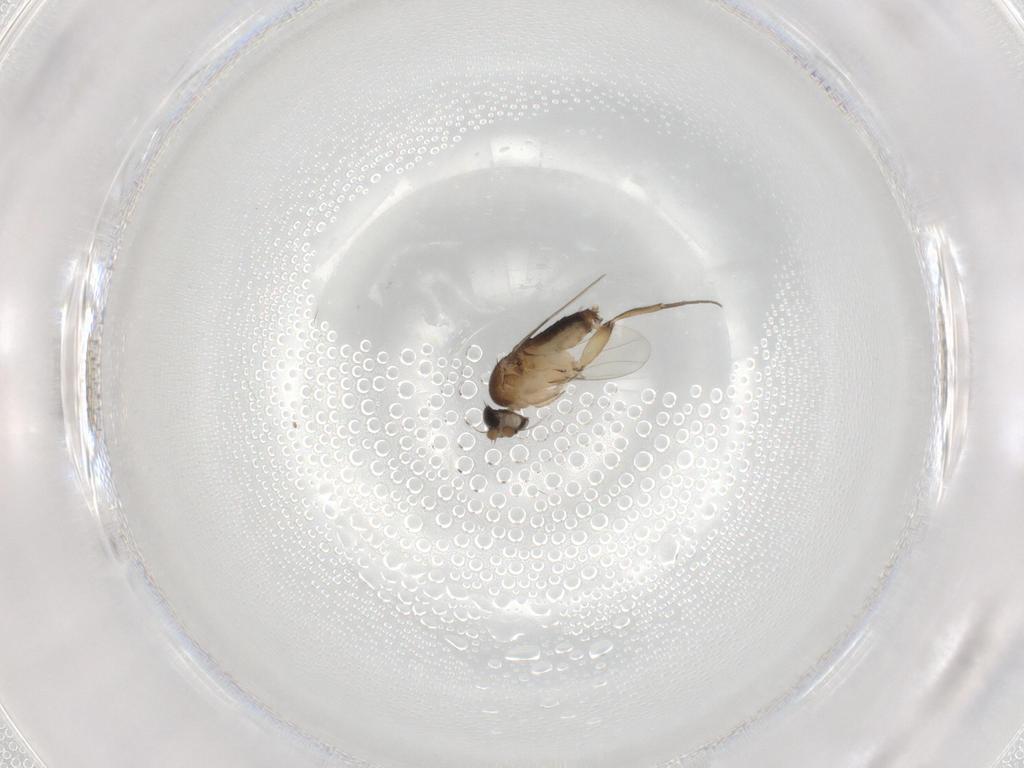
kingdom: Animalia
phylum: Arthropoda
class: Insecta
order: Diptera
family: Phoridae
